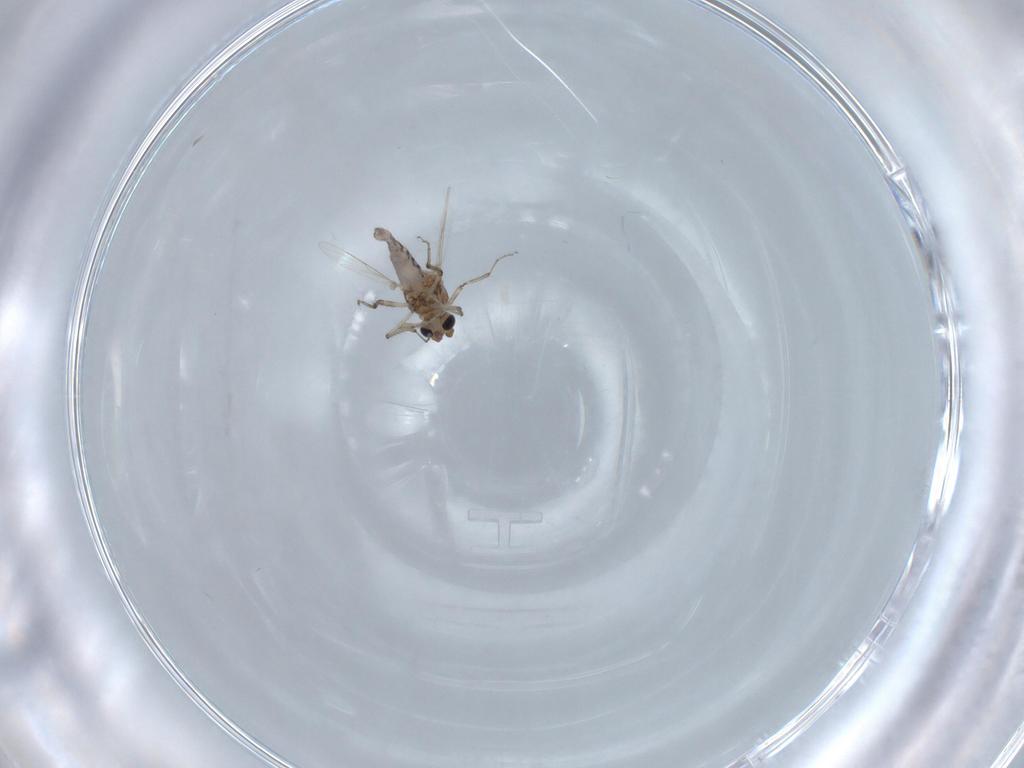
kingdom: Animalia
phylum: Arthropoda
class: Insecta
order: Diptera
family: Ceratopogonidae
